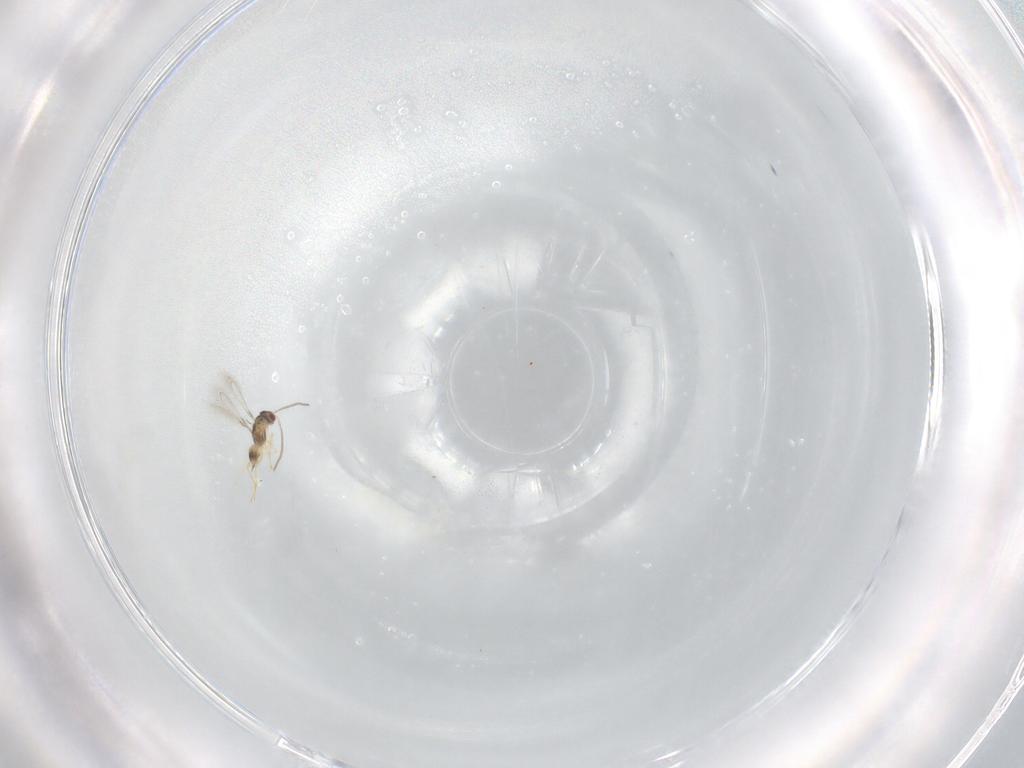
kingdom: Animalia
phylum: Arthropoda
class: Insecta
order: Hymenoptera
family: Mymaridae
